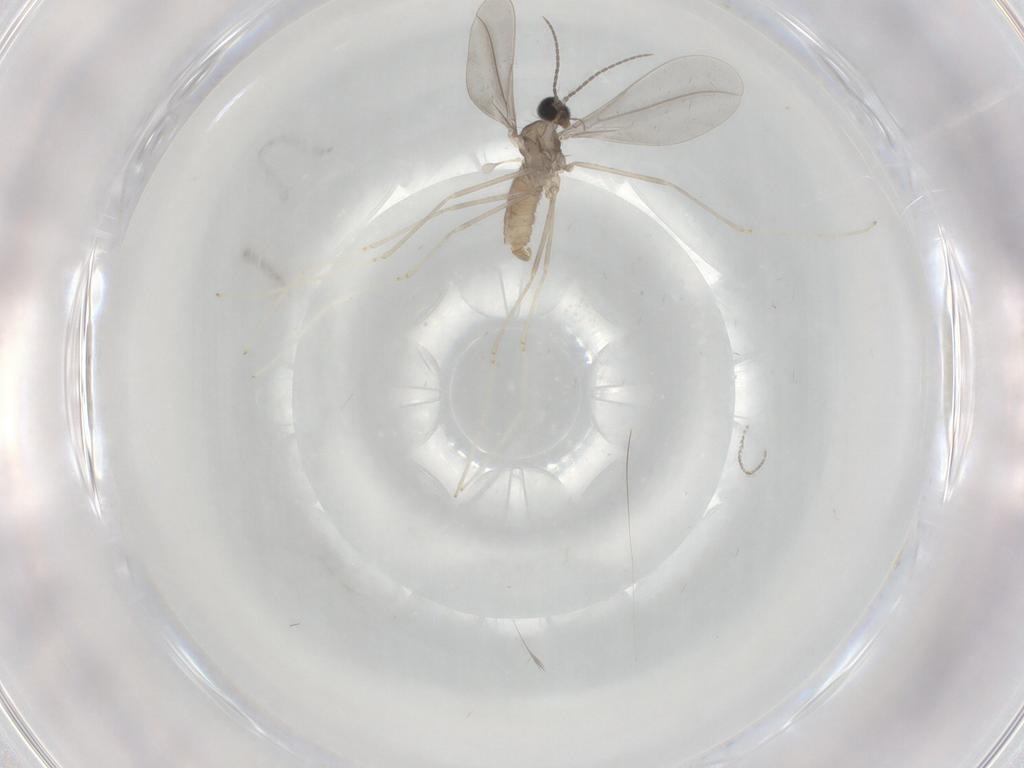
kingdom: Animalia
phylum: Arthropoda
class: Insecta
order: Diptera
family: Cecidomyiidae
